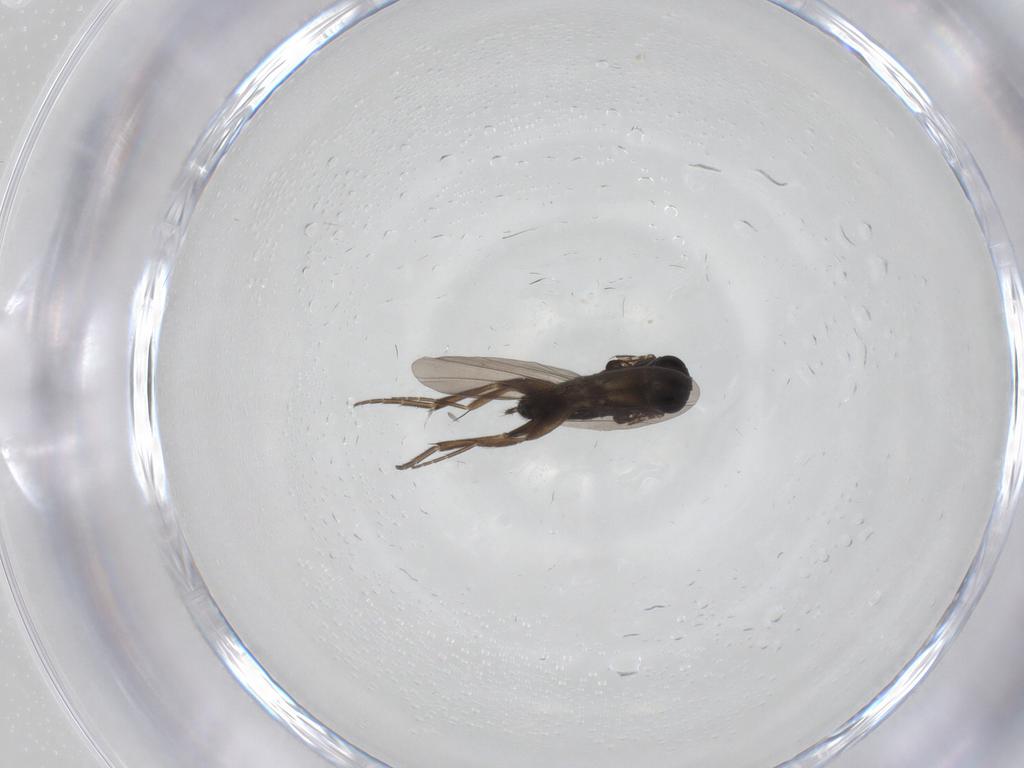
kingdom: Animalia
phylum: Arthropoda
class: Insecta
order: Diptera
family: Phoridae
